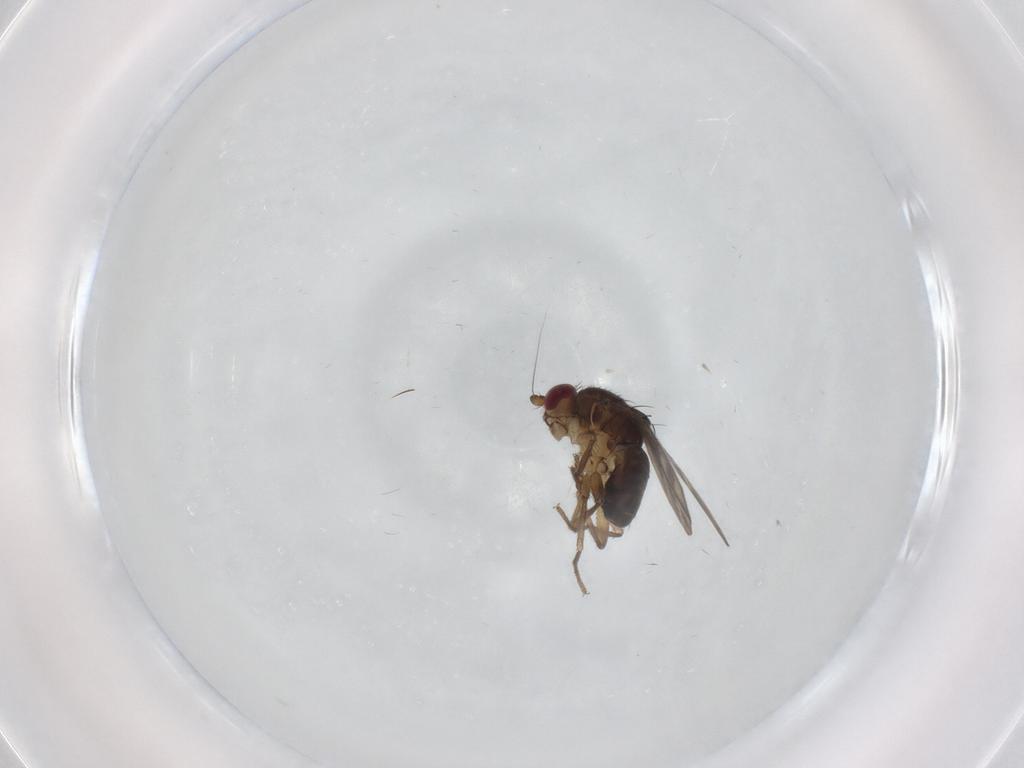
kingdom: Animalia
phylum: Arthropoda
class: Insecta
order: Diptera
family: Sphaeroceridae
